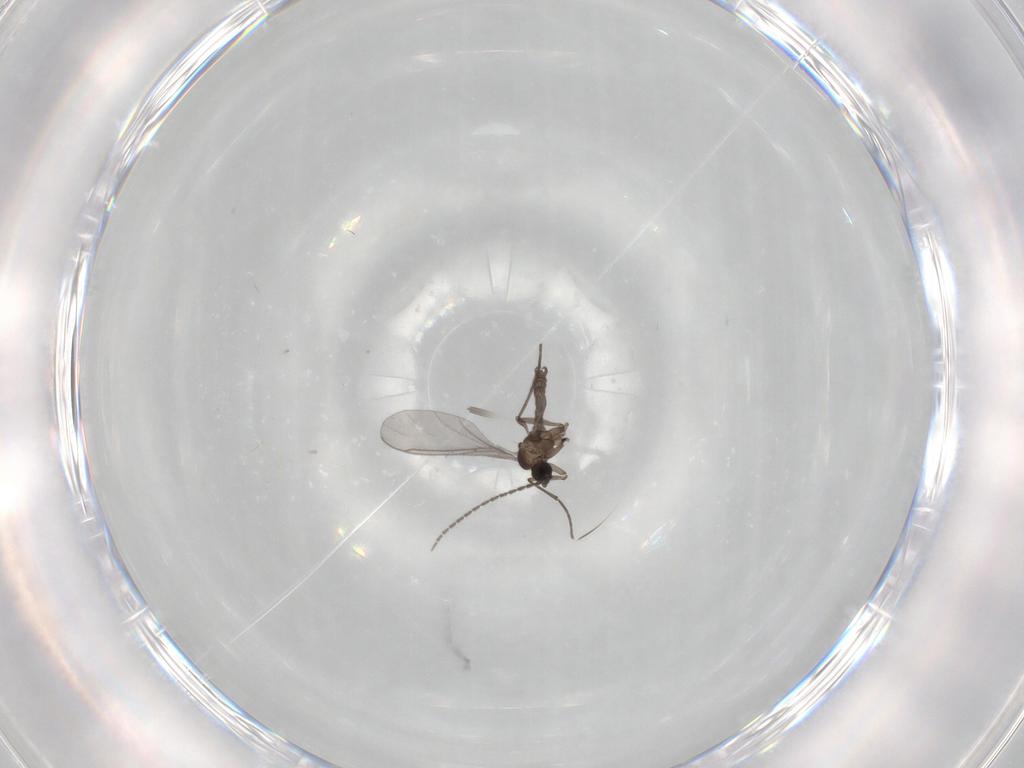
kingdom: Animalia
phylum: Arthropoda
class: Insecta
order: Diptera
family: Sciaridae
